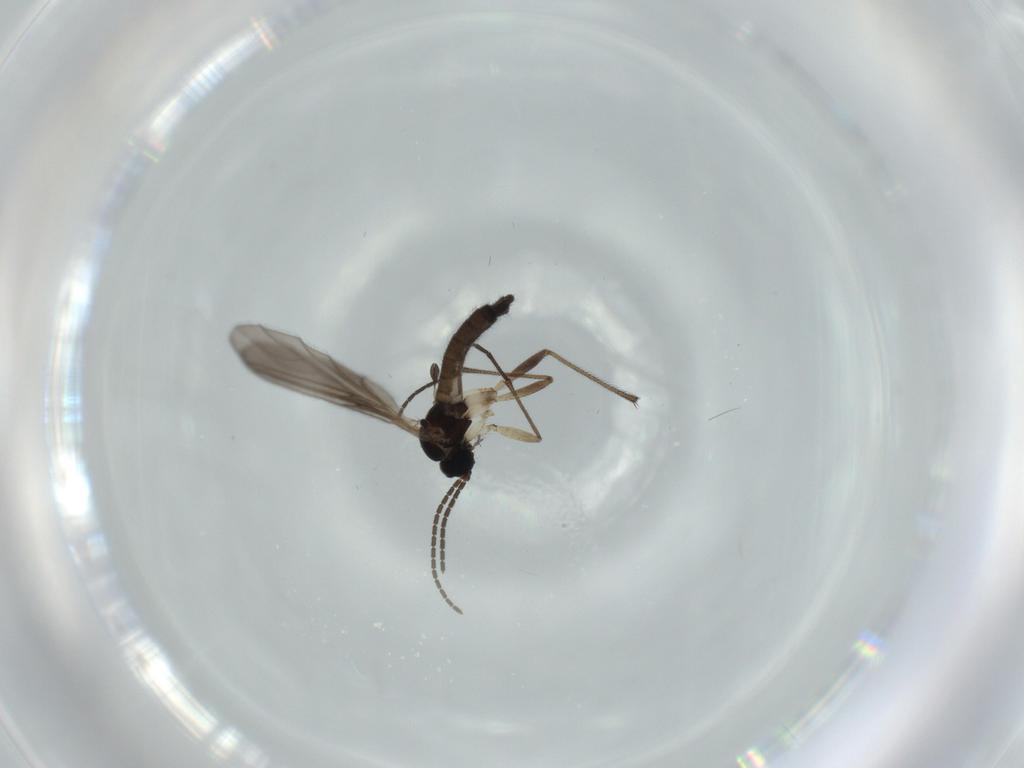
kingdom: Animalia
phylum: Arthropoda
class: Insecta
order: Diptera
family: Sciaridae
